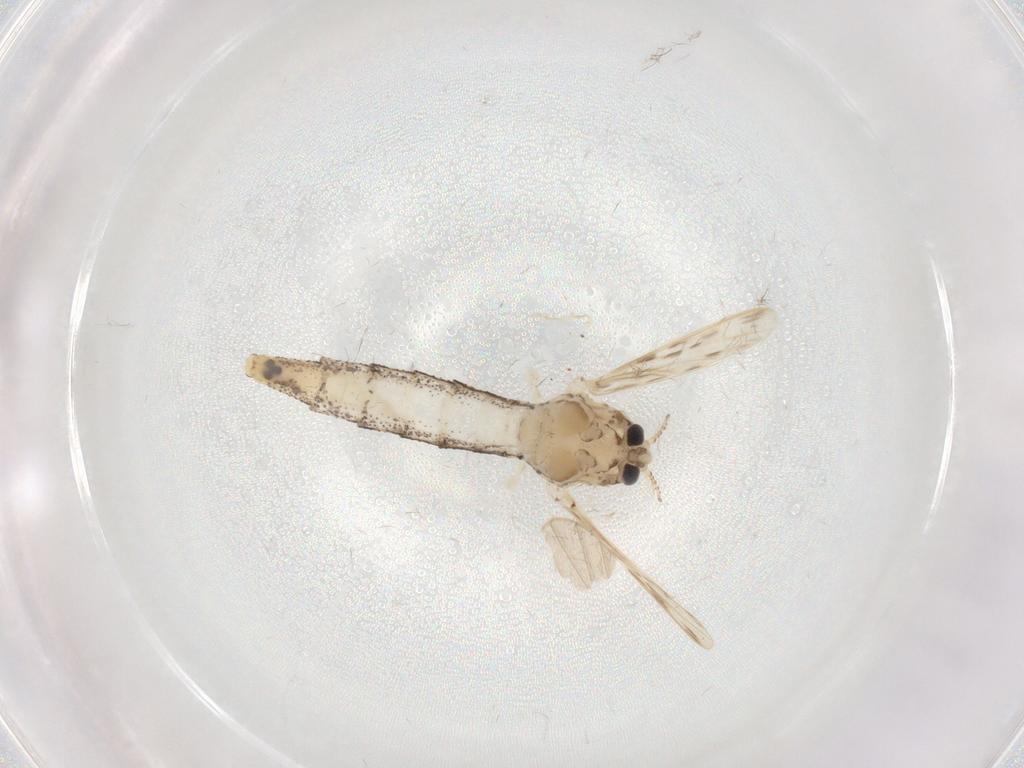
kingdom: Animalia
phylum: Arthropoda
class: Insecta
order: Diptera
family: Chaoboridae
